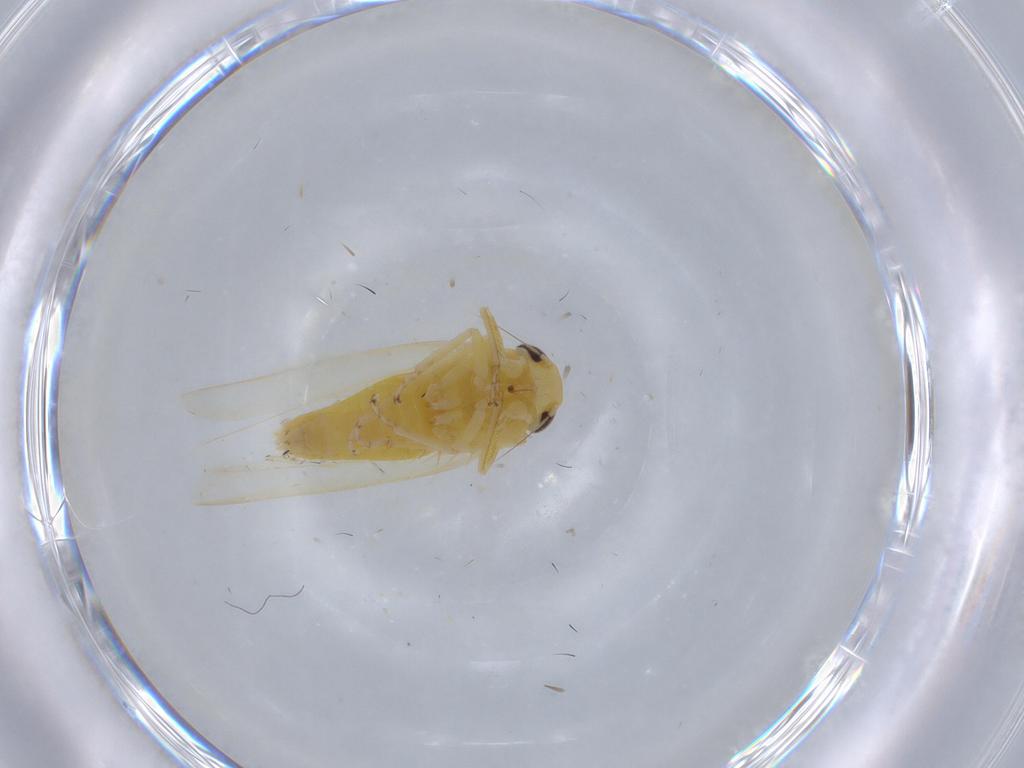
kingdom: Animalia
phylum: Arthropoda
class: Insecta
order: Hemiptera
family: Cicadellidae
